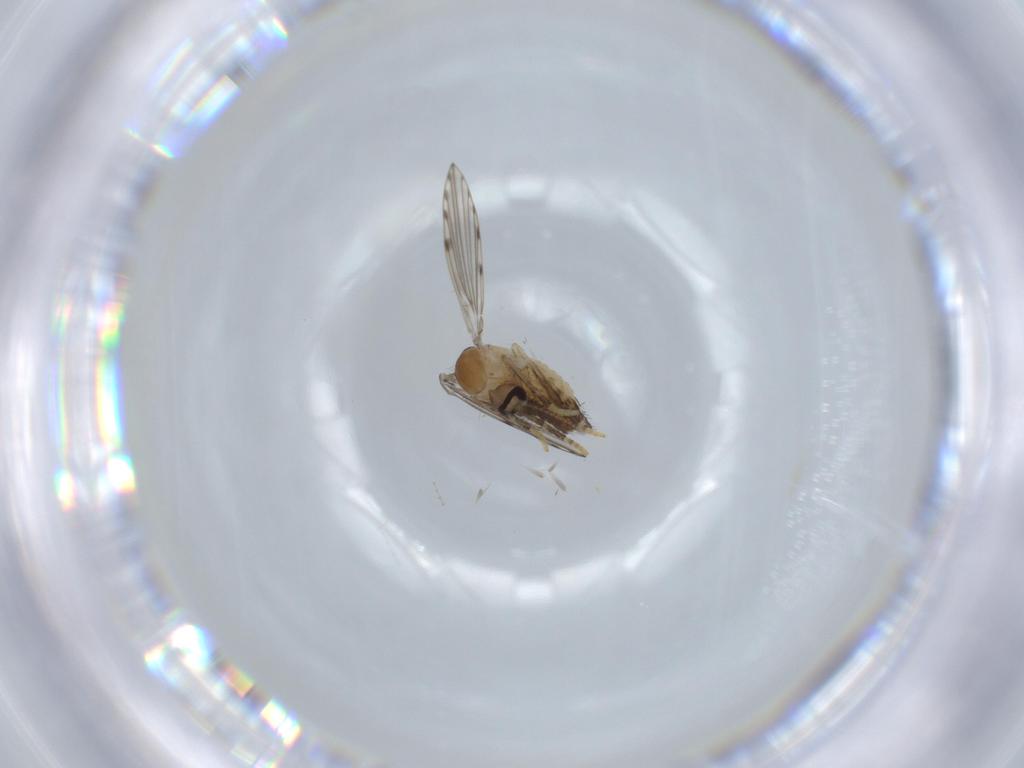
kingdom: Animalia
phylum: Arthropoda
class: Insecta
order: Diptera
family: Psychodidae
